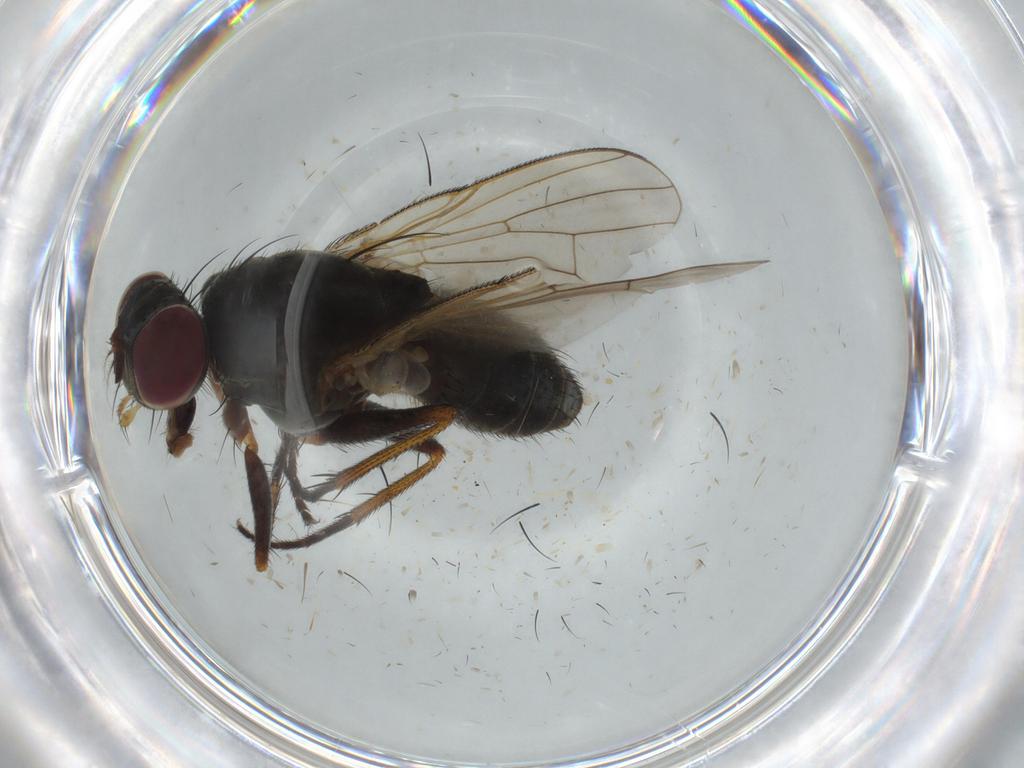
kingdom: Animalia
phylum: Arthropoda
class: Insecta
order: Diptera
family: Muscidae
